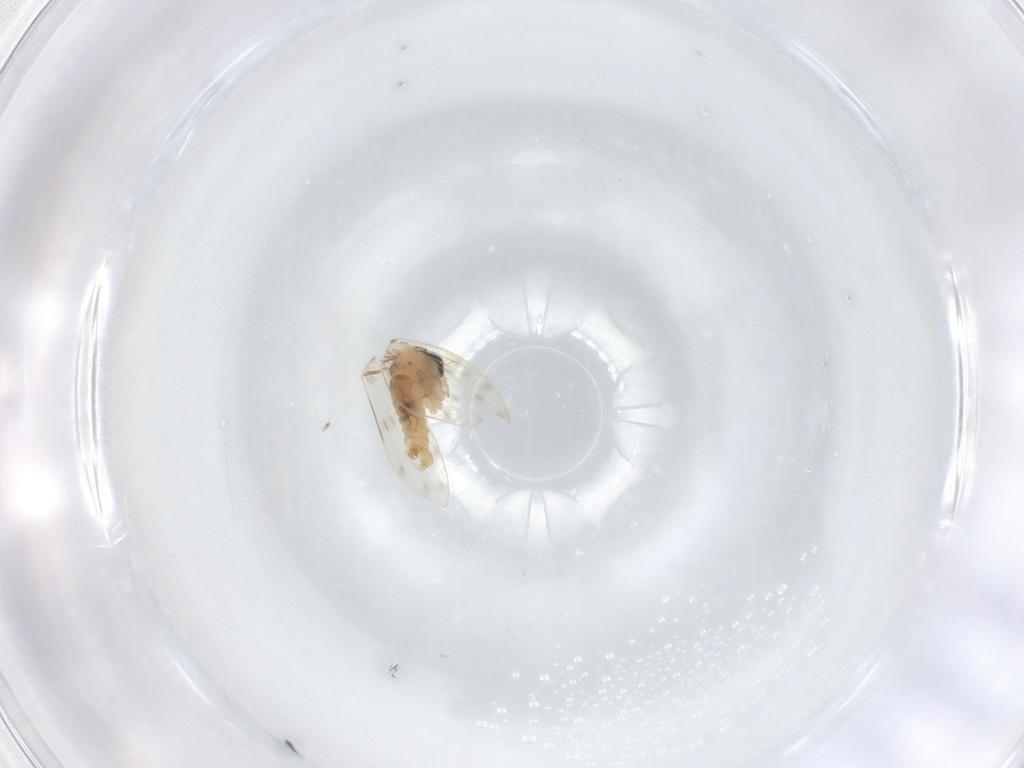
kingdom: Animalia
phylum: Arthropoda
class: Insecta
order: Diptera
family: Psychodidae
